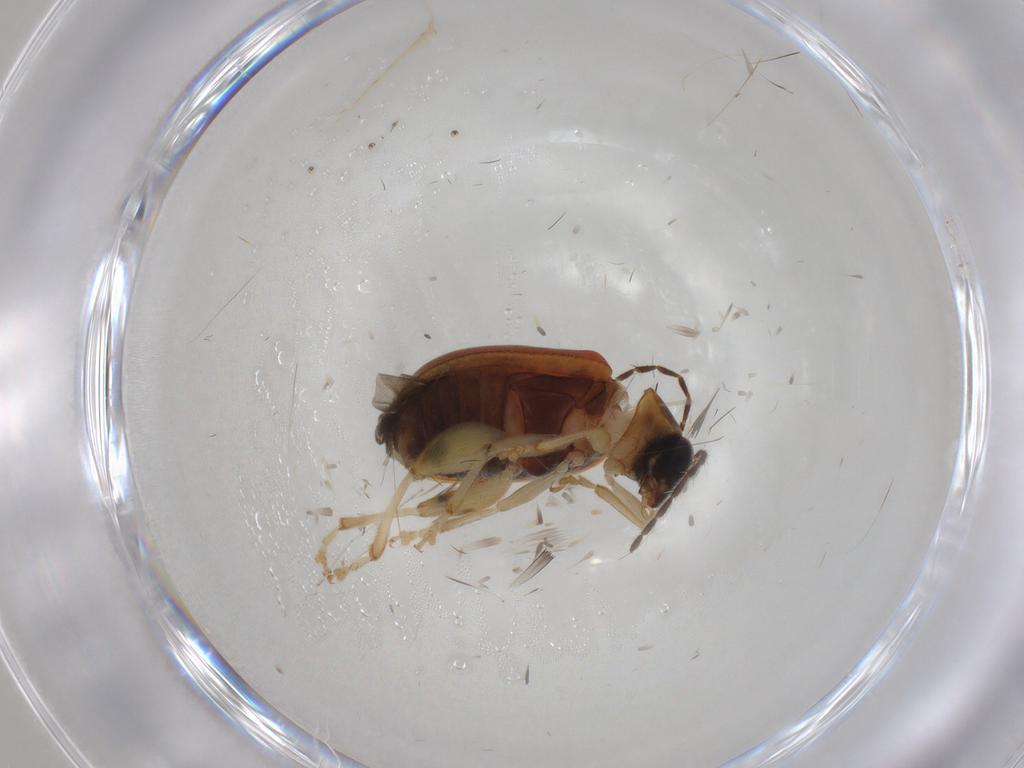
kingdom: Animalia
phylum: Arthropoda
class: Insecta
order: Coleoptera
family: Chrysomelidae
